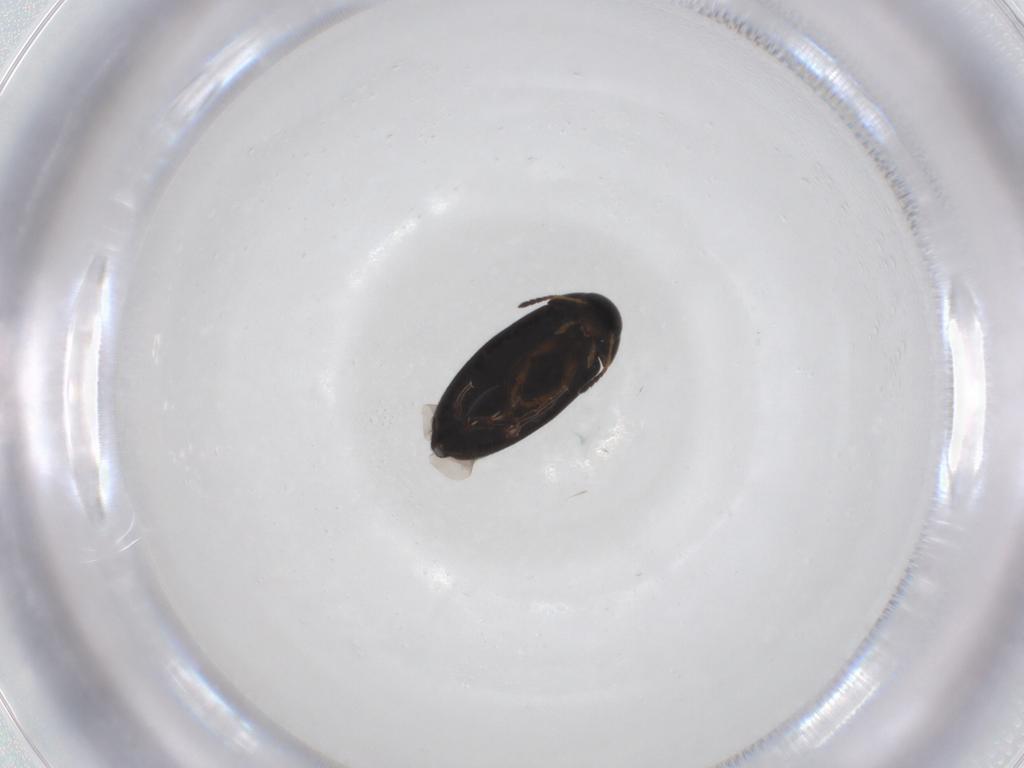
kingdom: Animalia
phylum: Arthropoda
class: Insecta
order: Coleoptera
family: Scraptiidae
